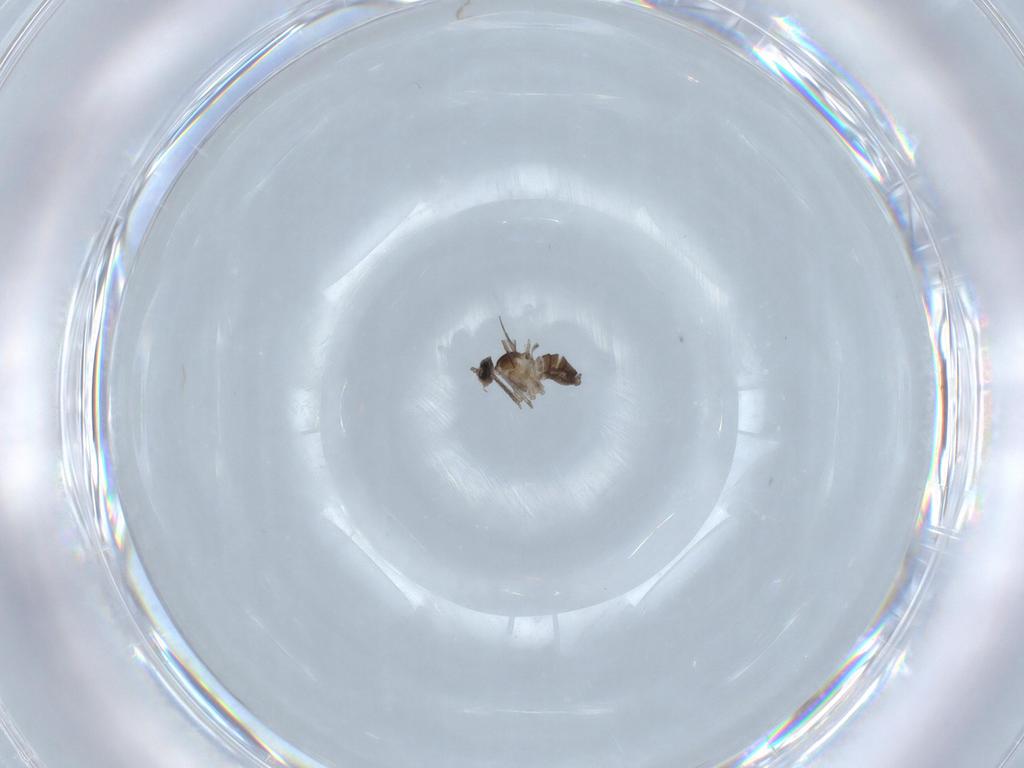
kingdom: Animalia
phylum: Arthropoda
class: Insecta
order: Diptera
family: Cecidomyiidae
